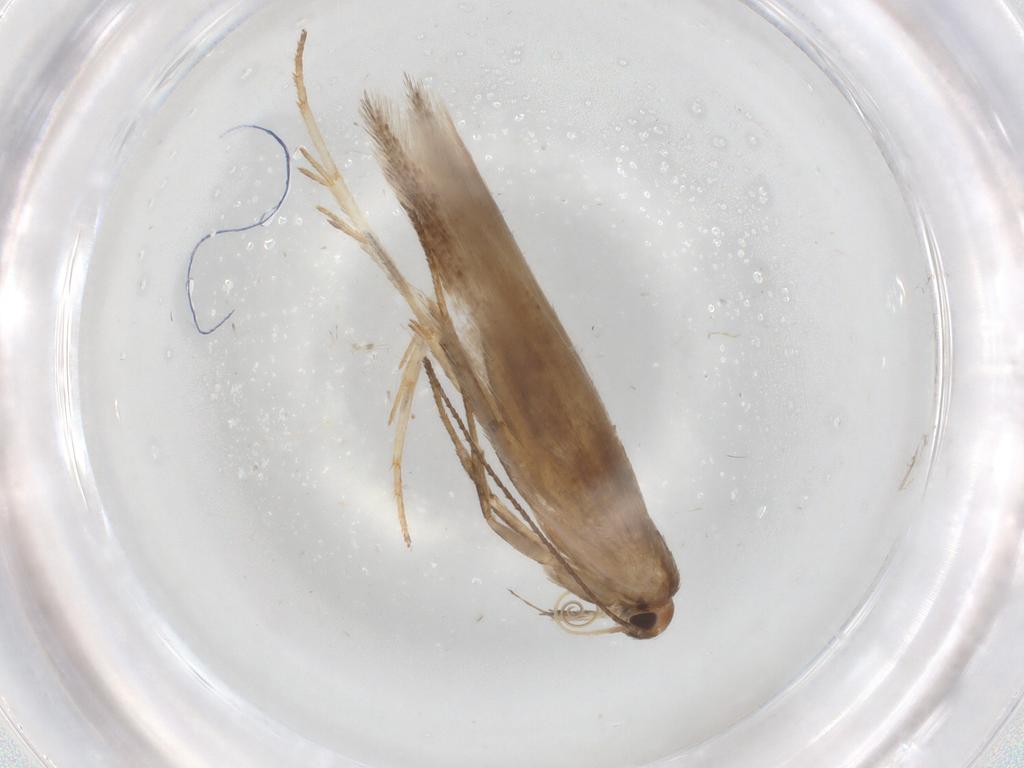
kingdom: Animalia
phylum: Arthropoda
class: Insecta
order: Lepidoptera
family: Gelechiidae
